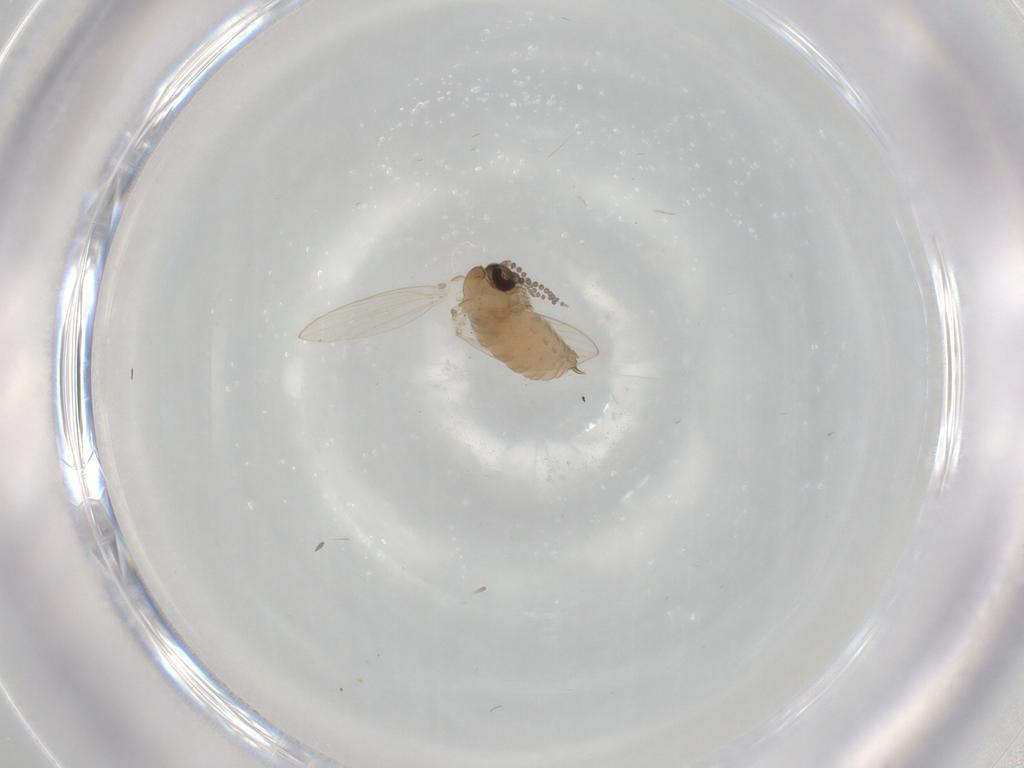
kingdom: Animalia
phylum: Arthropoda
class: Insecta
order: Diptera
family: Psychodidae
